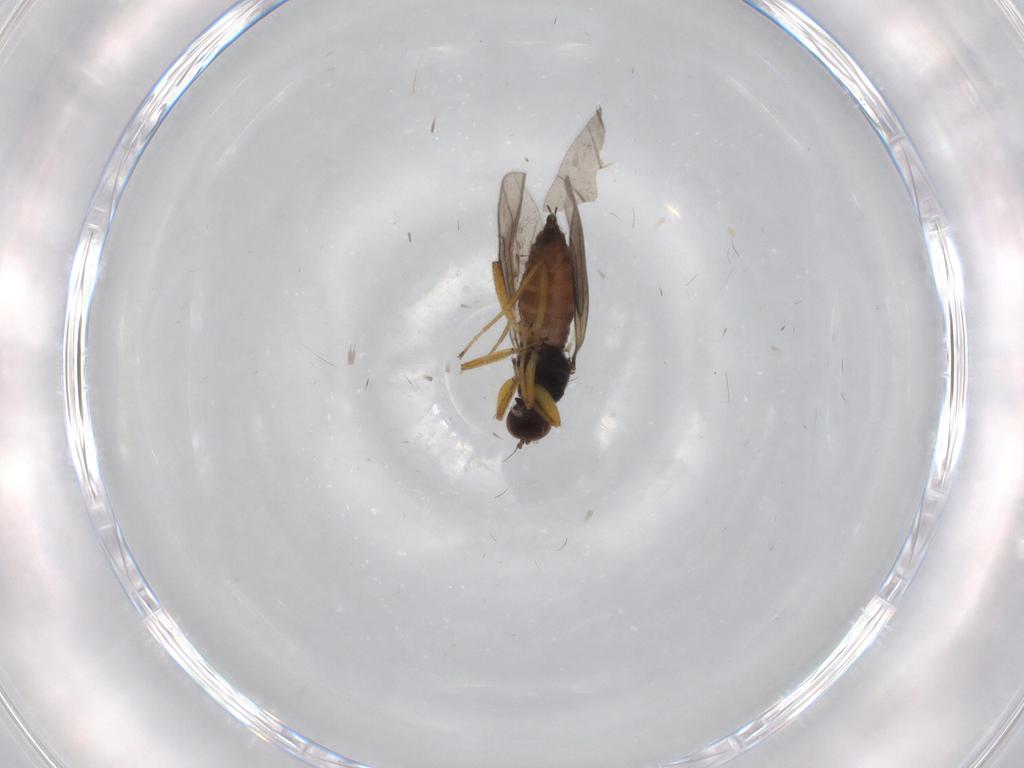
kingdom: Animalia
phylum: Arthropoda
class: Insecta
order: Diptera
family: Hybotidae
